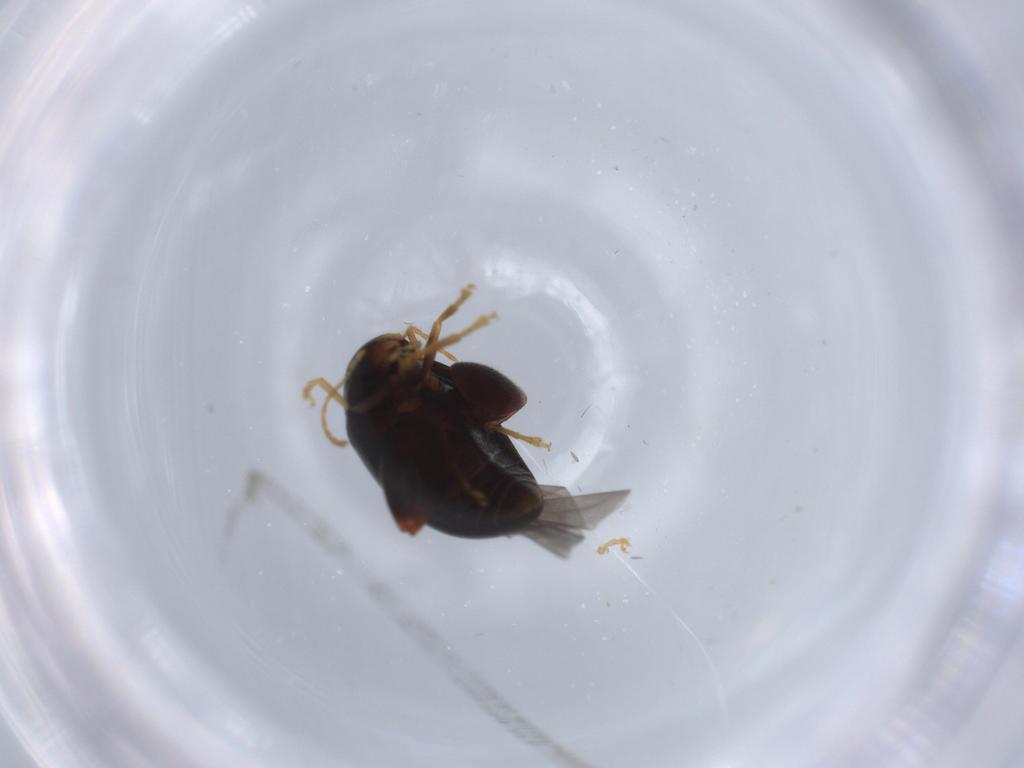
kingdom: Animalia
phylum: Arthropoda
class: Insecta
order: Coleoptera
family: Chrysomelidae
